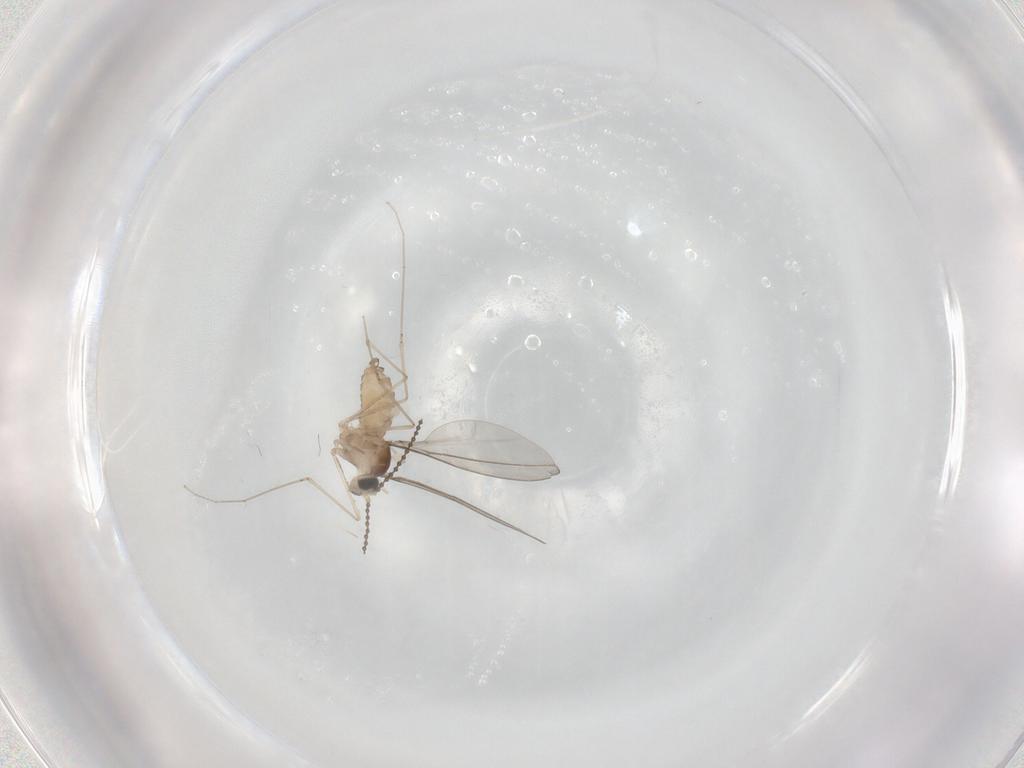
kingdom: Animalia
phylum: Arthropoda
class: Insecta
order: Diptera
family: Cecidomyiidae
